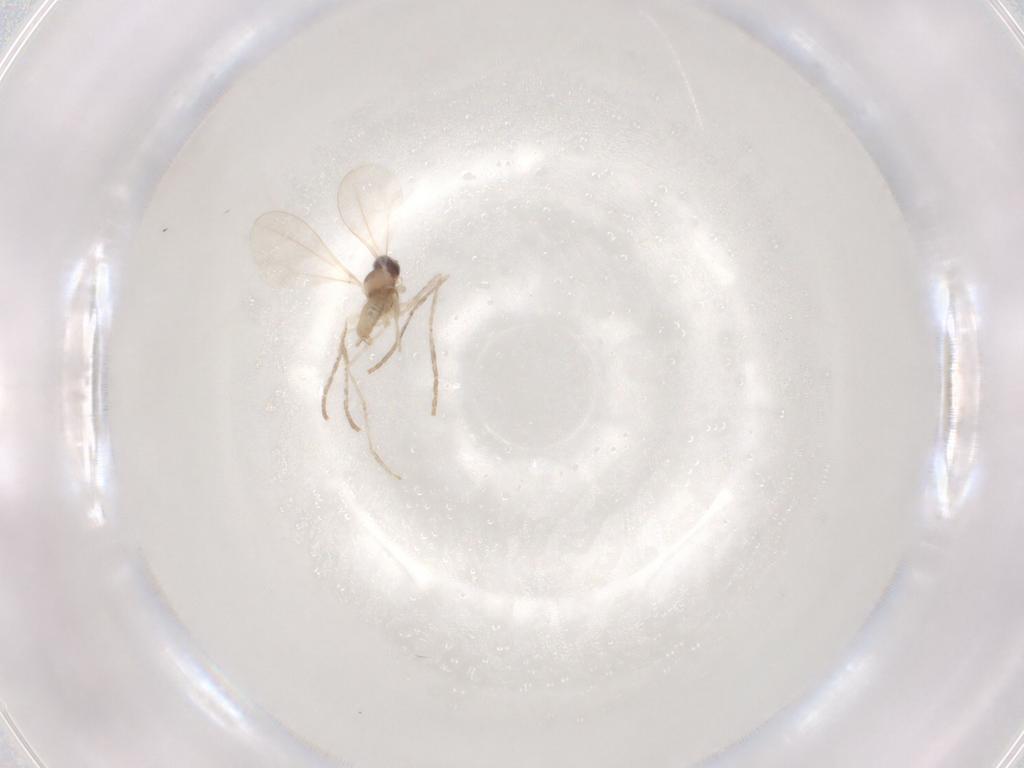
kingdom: Animalia
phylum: Arthropoda
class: Insecta
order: Diptera
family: Cecidomyiidae
